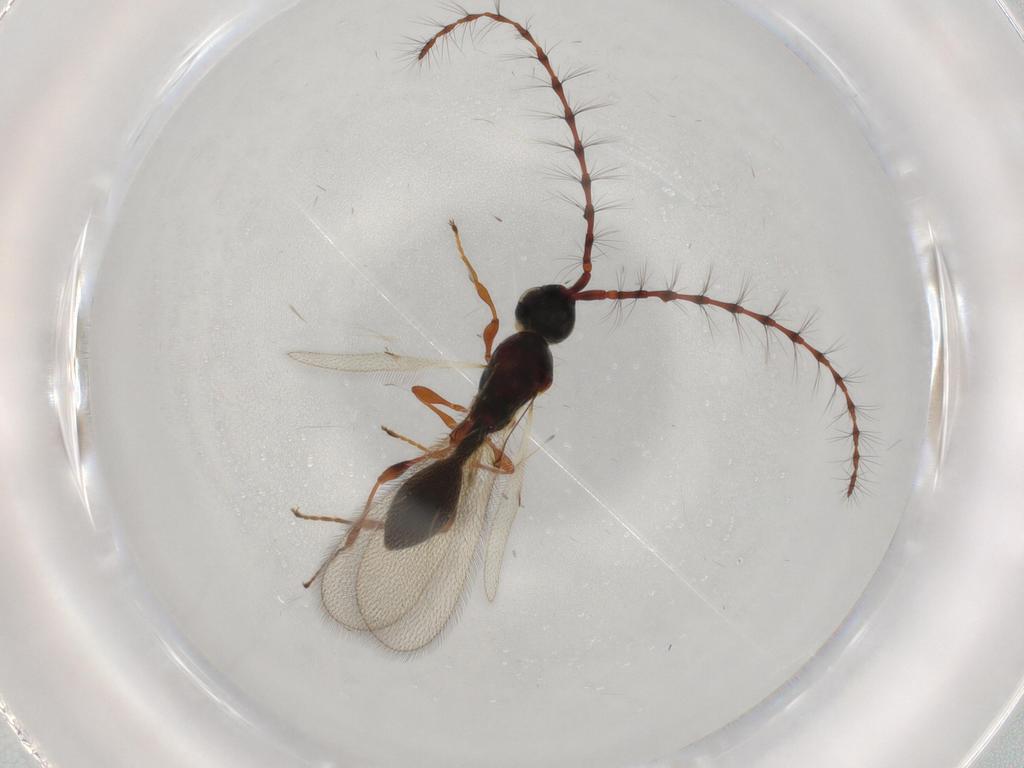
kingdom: Animalia
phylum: Arthropoda
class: Insecta
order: Hymenoptera
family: Diapriidae
